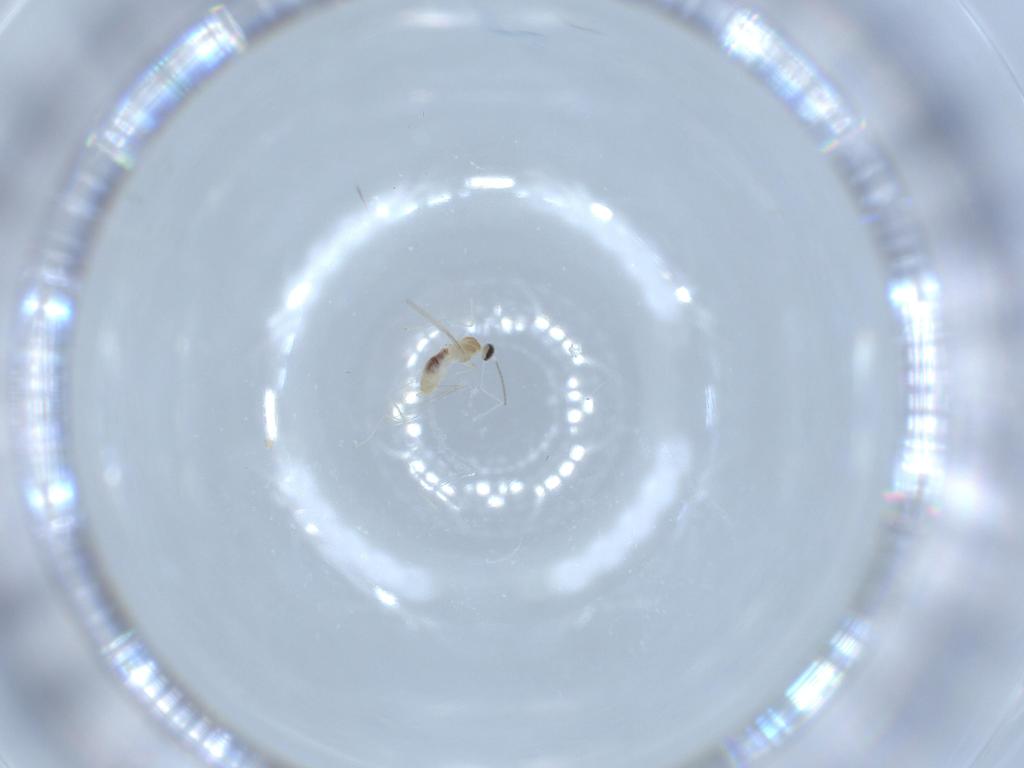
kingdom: Animalia
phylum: Arthropoda
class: Insecta
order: Diptera
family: Cecidomyiidae
